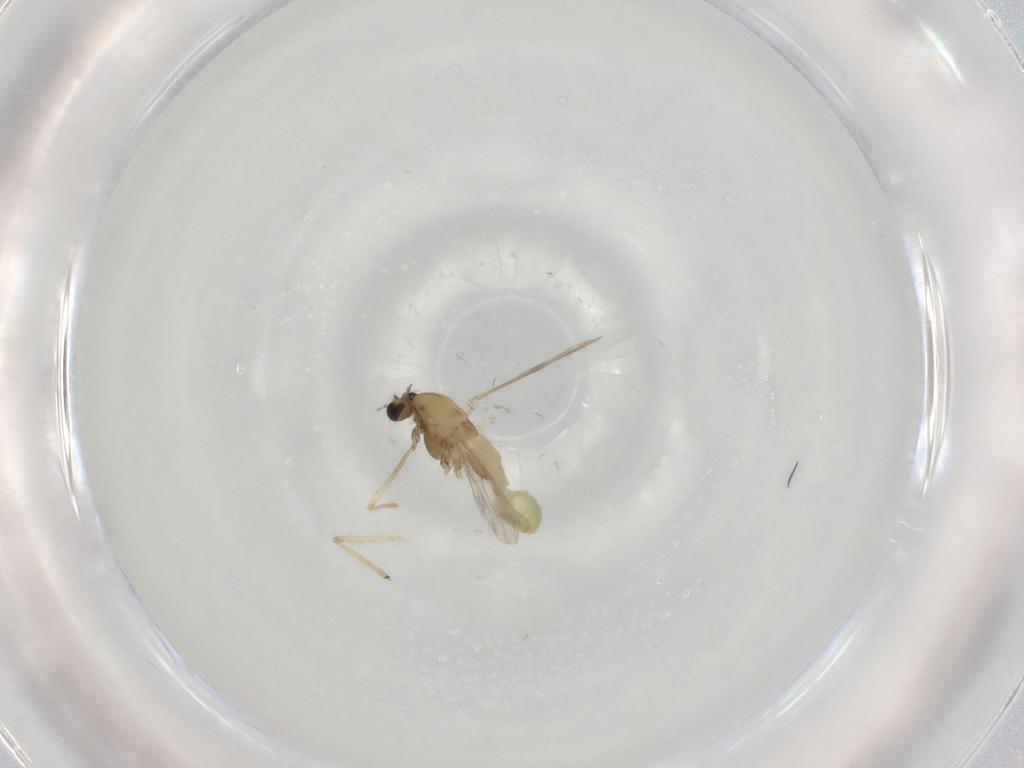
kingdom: Animalia
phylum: Arthropoda
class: Insecta
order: Diptera
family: Chironomidae
